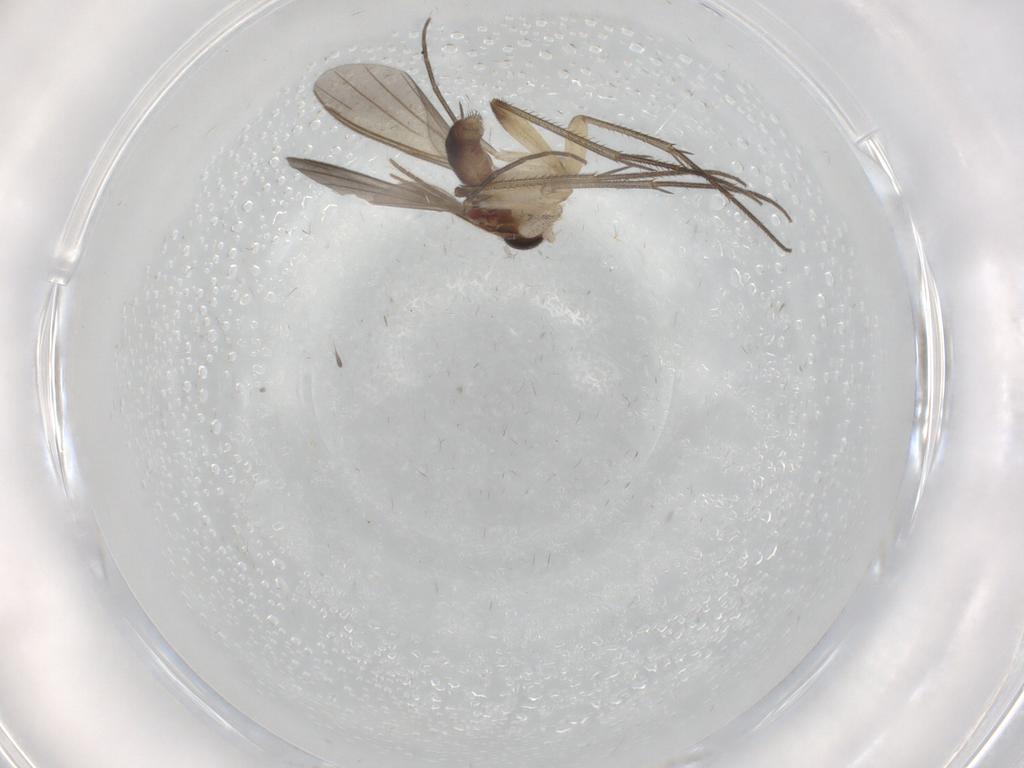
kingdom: Animalia
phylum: Arthropoda
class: Insecta
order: Diptera
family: Mycetophilidae
